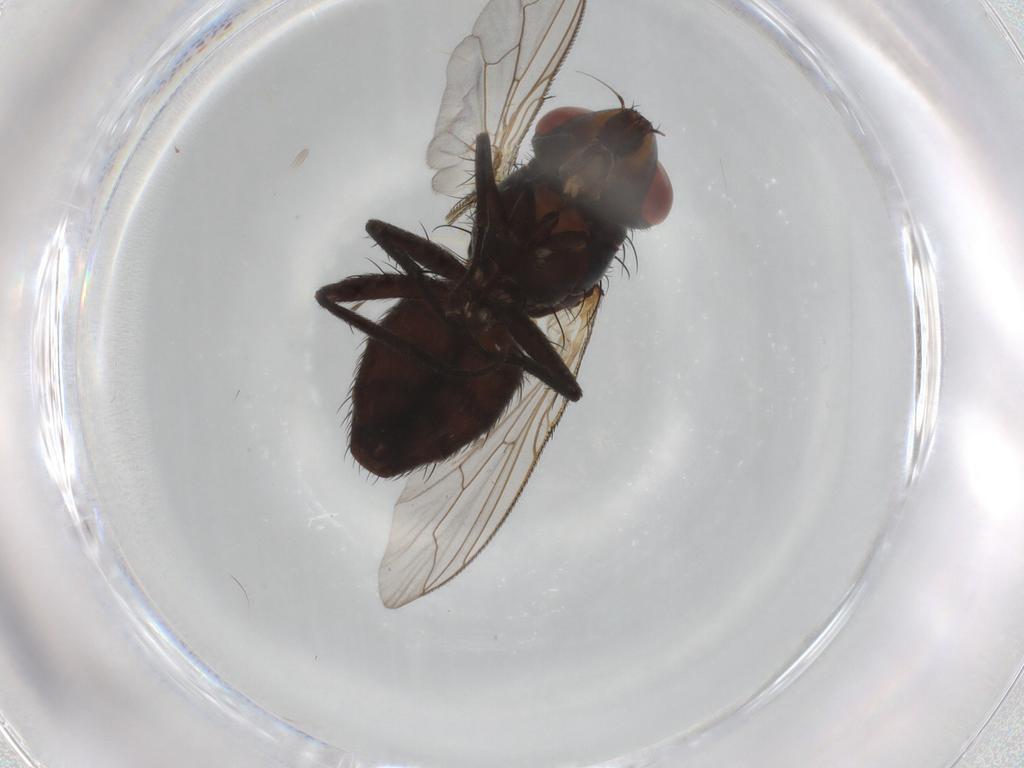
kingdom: Animalia
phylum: Arthropoda
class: Insecta
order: Diptera
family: Sarcophagidae
